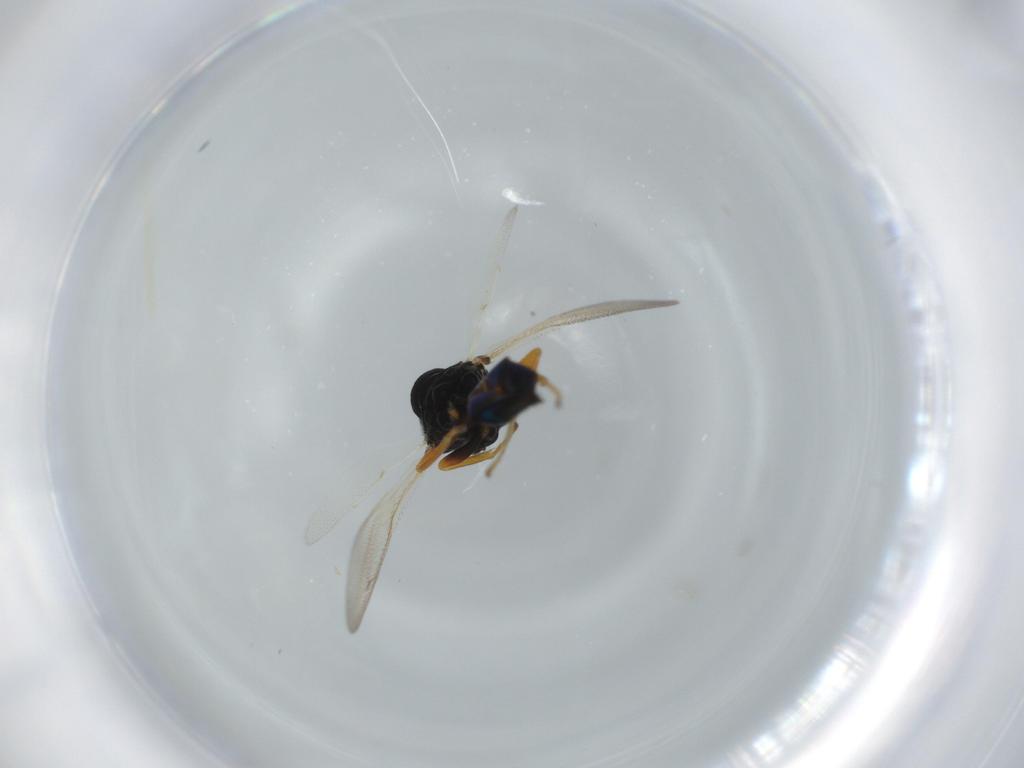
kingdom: Animalia
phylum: Arthropoda
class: Insecta
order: Hymenoptera
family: Pteromalidae
